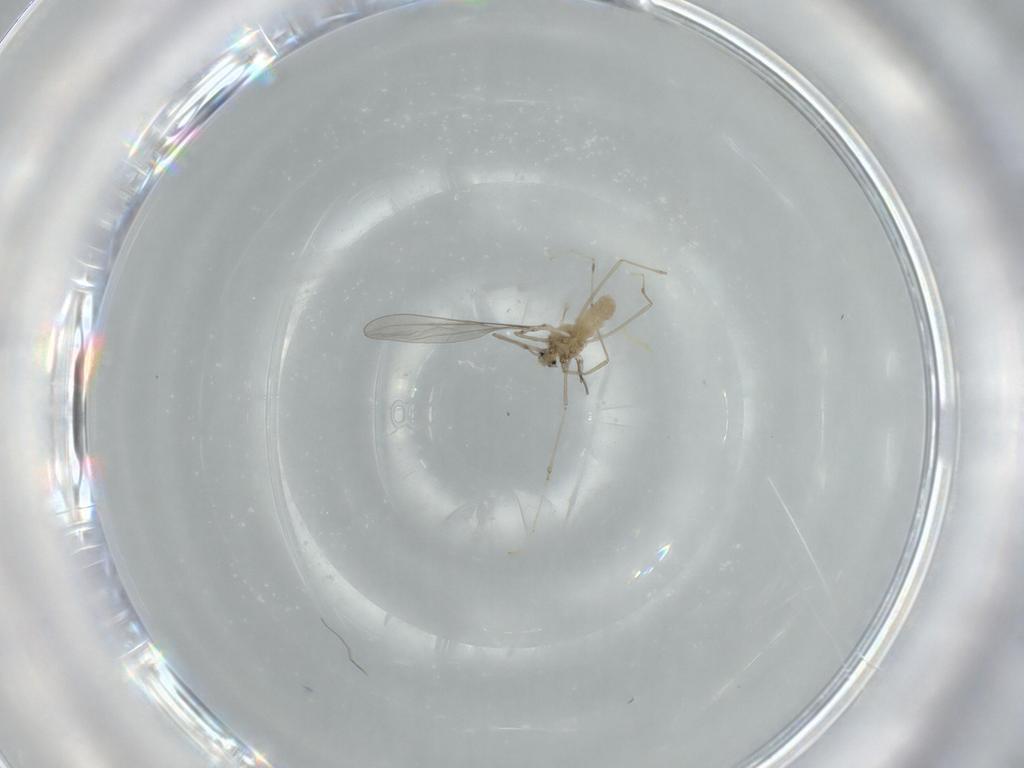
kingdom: Animalia
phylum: Arthropoda
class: Insecta
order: Diptera
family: Cecidomyiidae
